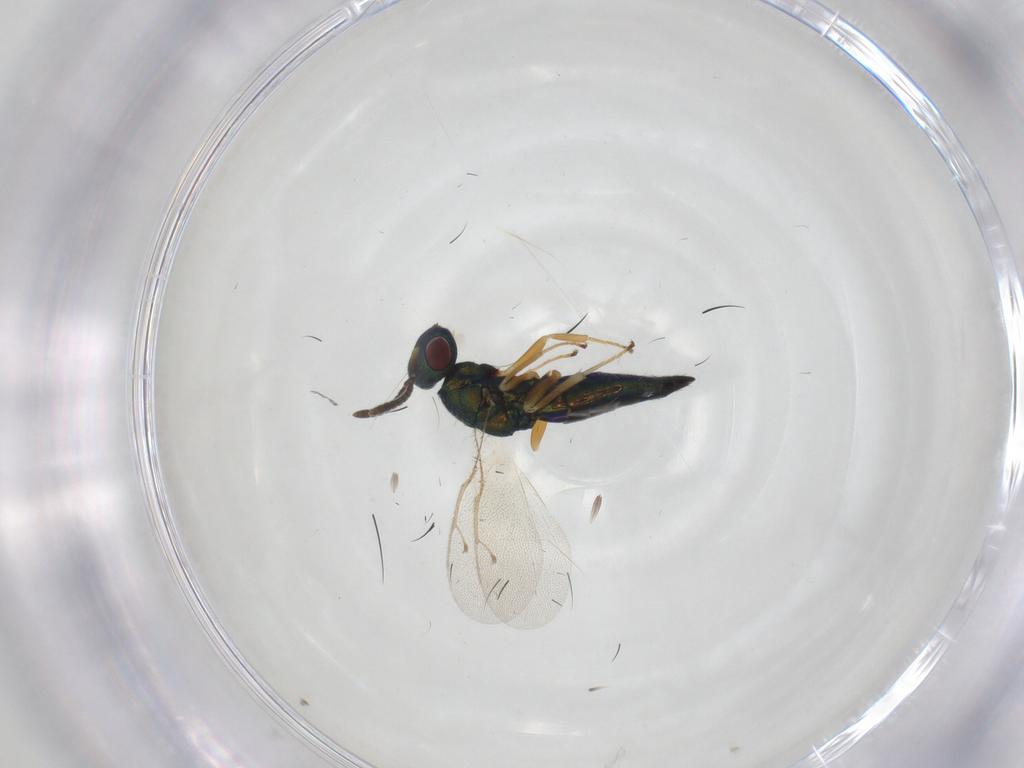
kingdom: Animalia
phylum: Arthropoda
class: Insecta
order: Hymenoptera
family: Pteromalidae
